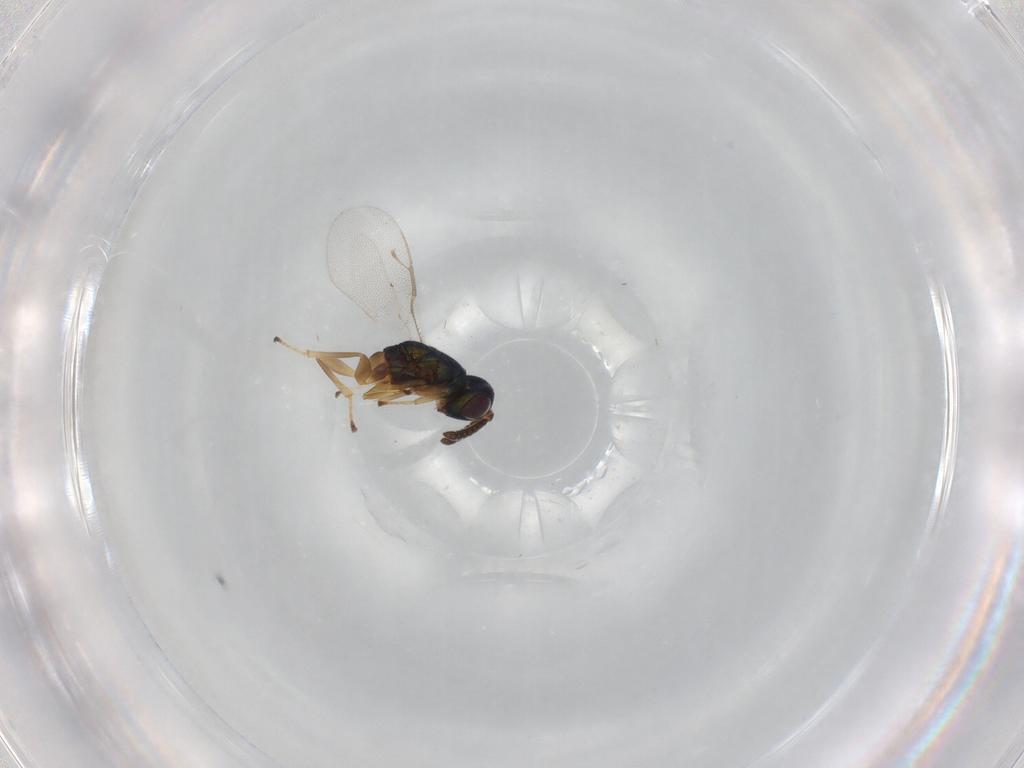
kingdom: Animalia
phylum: Arthropoda
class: Insecta
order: Hymenoptera
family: Pteromalidae
